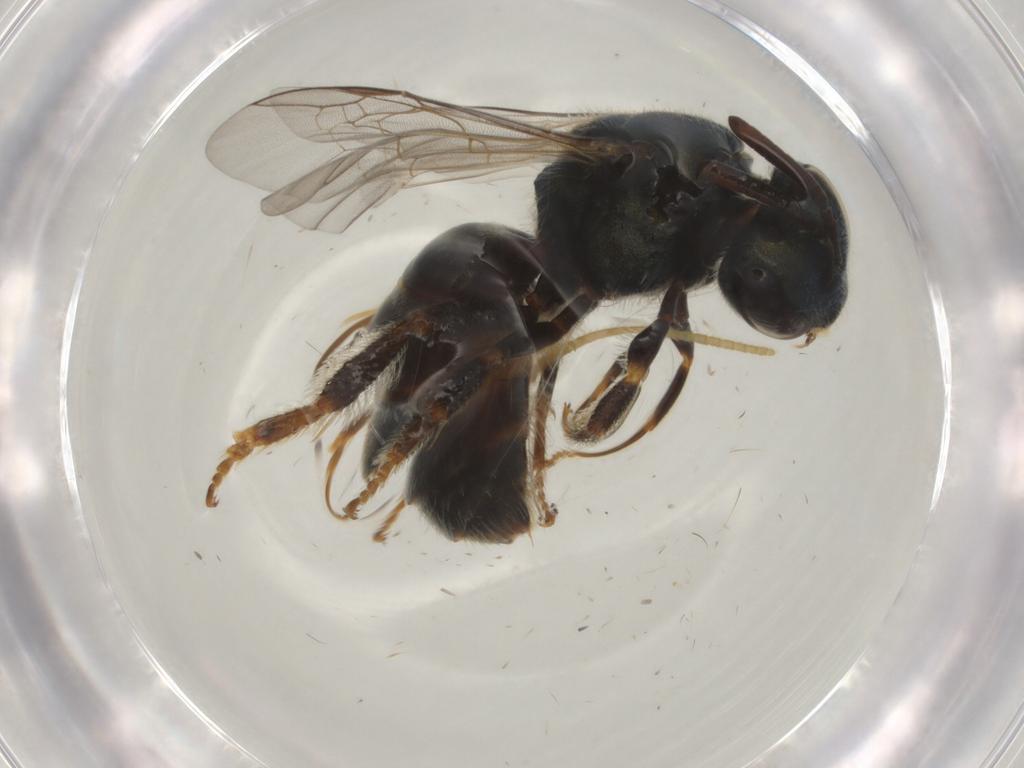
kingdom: Animalia
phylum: Arthropoda
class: Insecta
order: Hymenoptera
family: Halictidae
